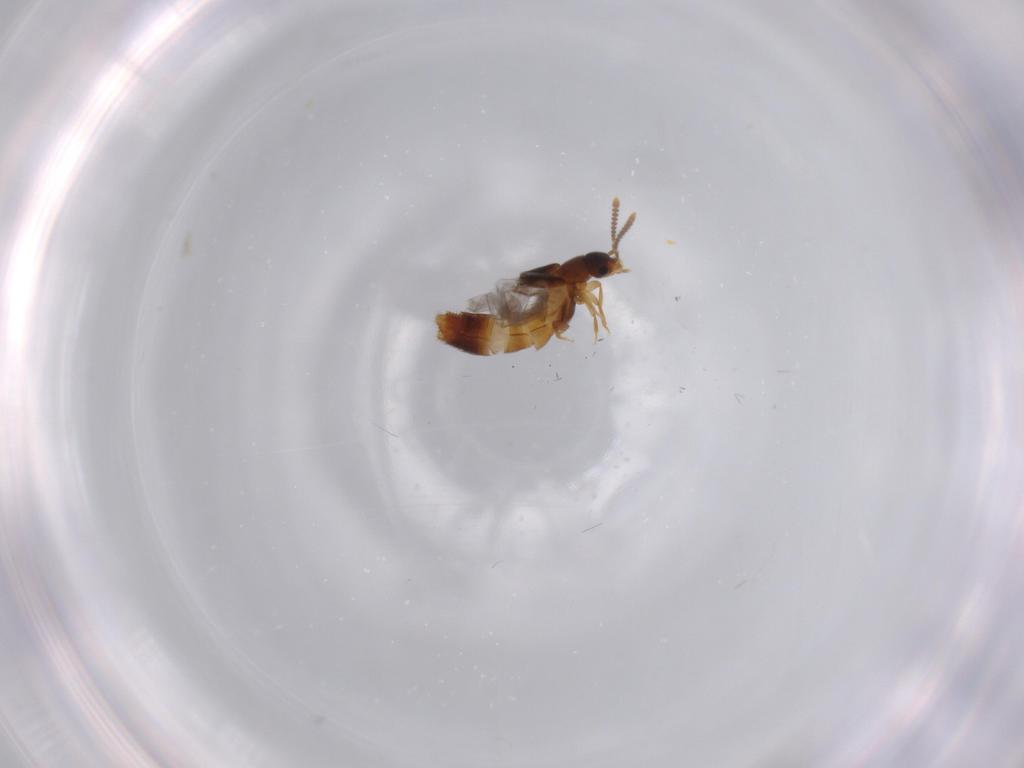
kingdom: Animalia
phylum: Arthropoda
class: Insecta
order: Coleoptera
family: Staphylinidae
